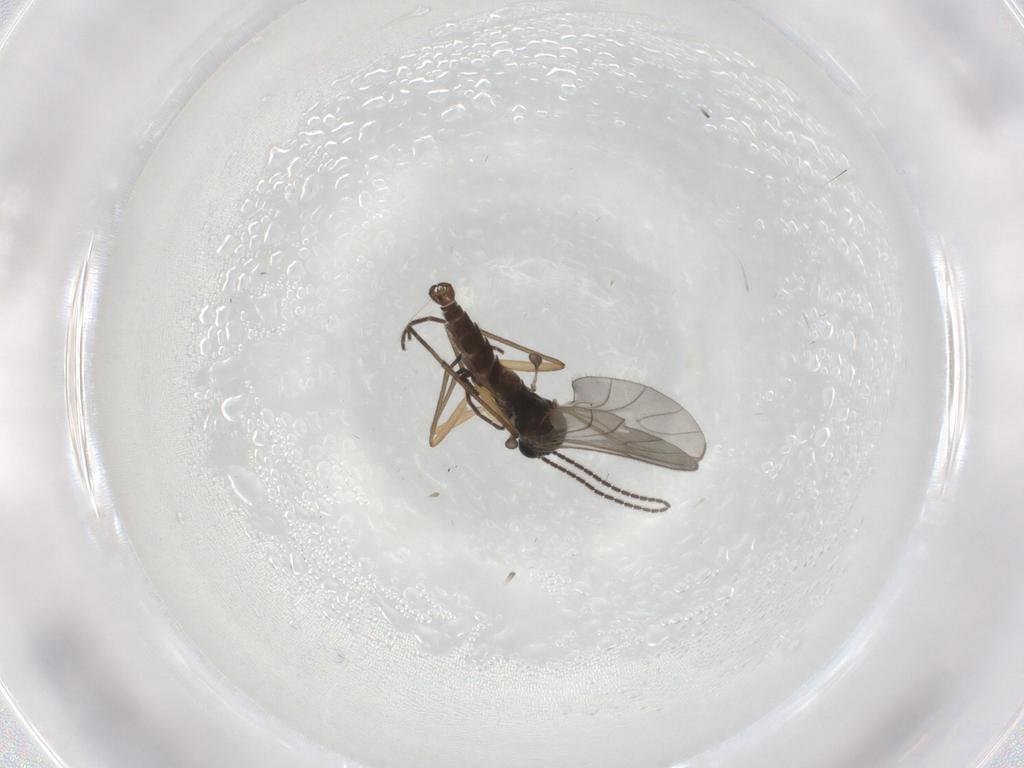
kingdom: Animalia
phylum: Arthropoda
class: Insecta
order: Diptera
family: Sciaridae
